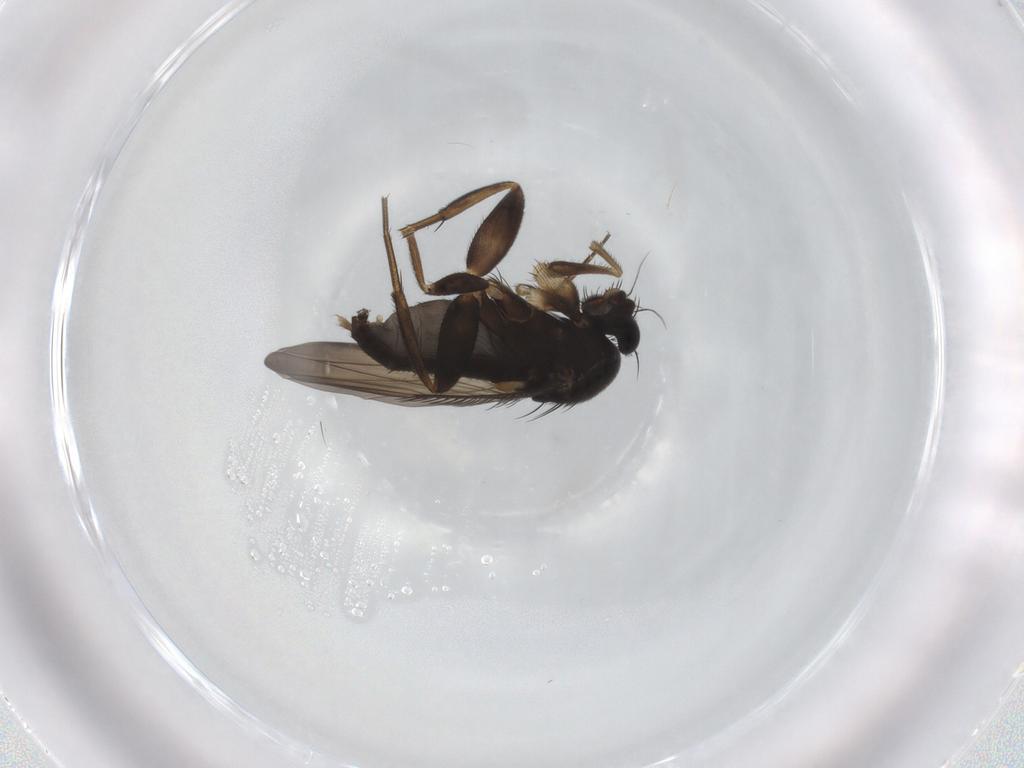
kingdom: Animalia
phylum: Arthropoda
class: Insecta
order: Diptera
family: Phoridae
